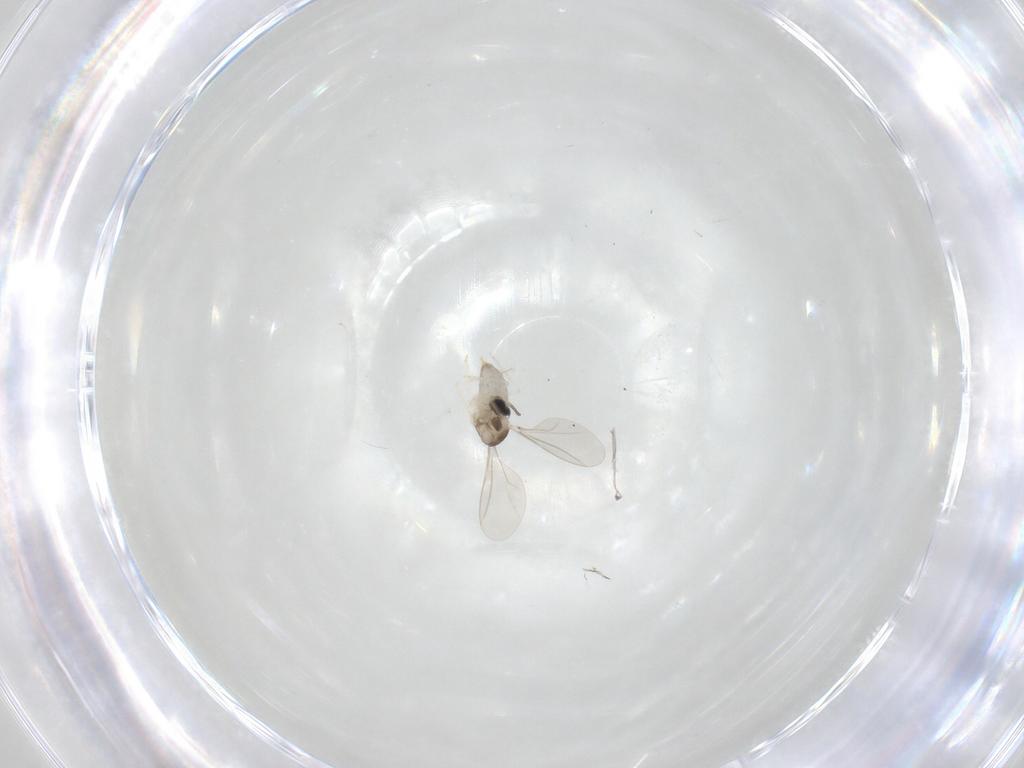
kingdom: Animalia
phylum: Arthropoda
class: Insecta
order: Diptera
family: Cecidomyiidae
